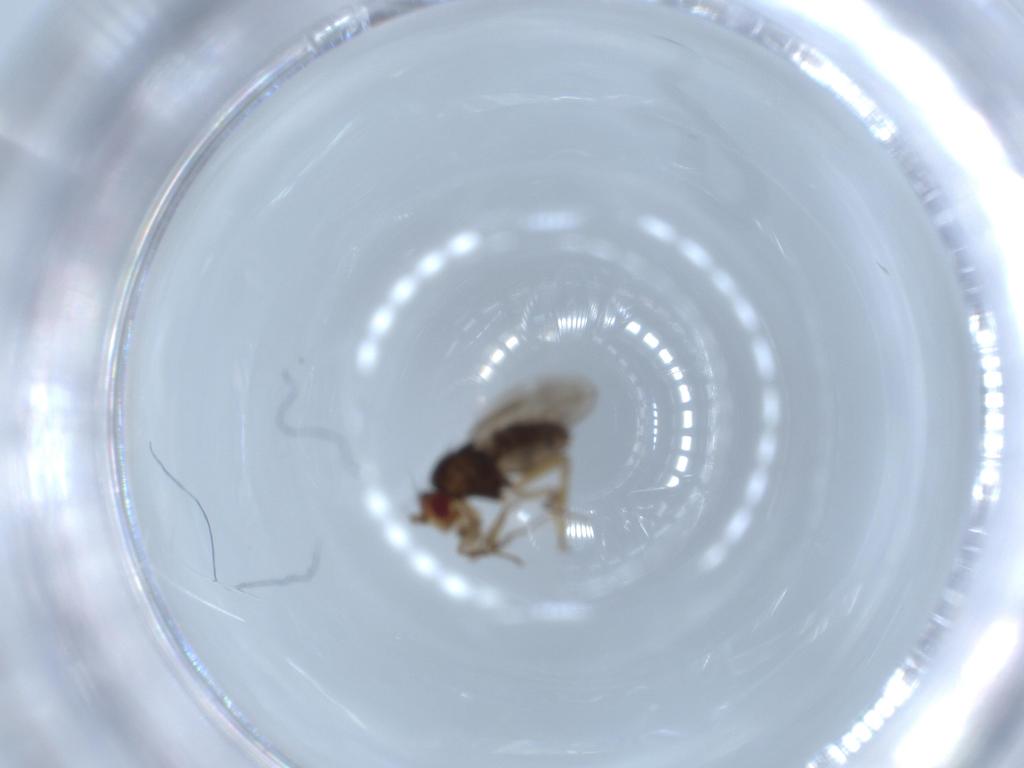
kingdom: Animalia
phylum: Arthropoda
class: Insecta
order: Diptera
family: Sphaeroceridae
